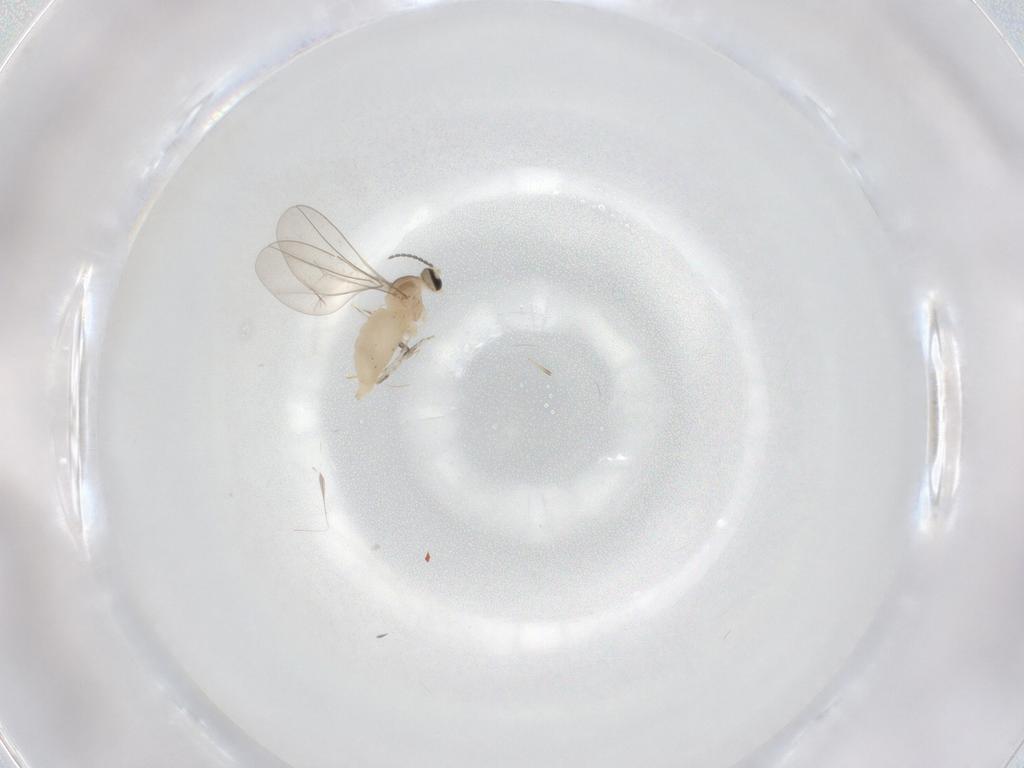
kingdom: Animalia
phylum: Arthropoda
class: Insecta
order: Diptera
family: Cecidomyiidae
